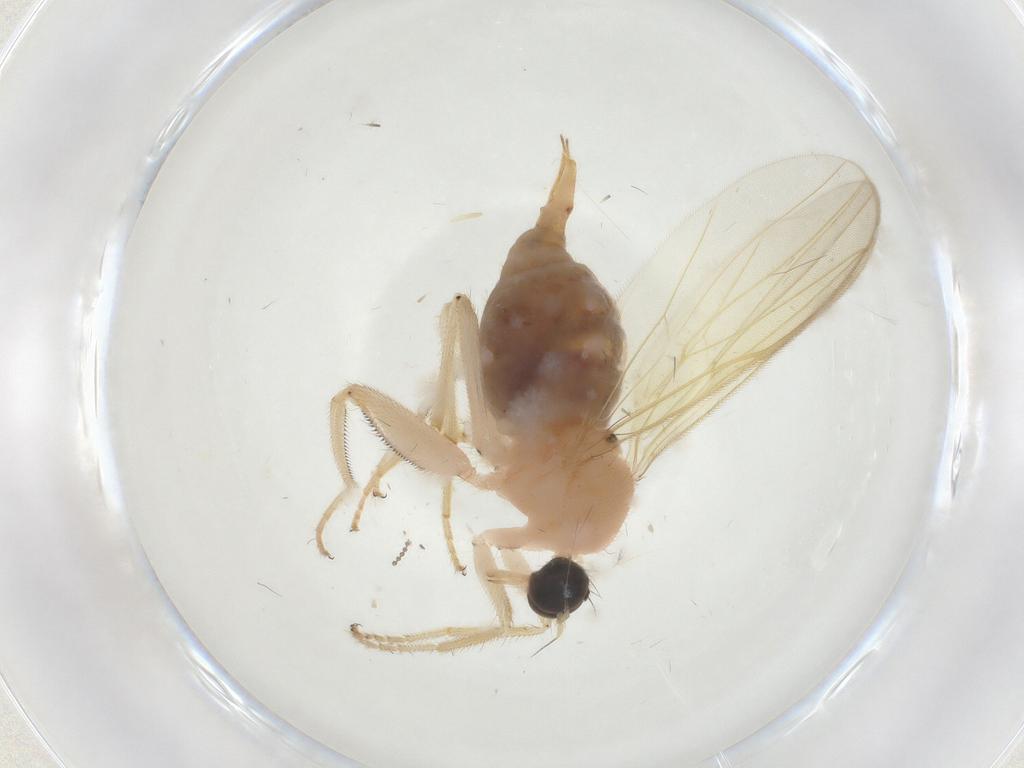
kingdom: Animalia
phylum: Arthropoda
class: Insecta
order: Diptera
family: Hybotidae
